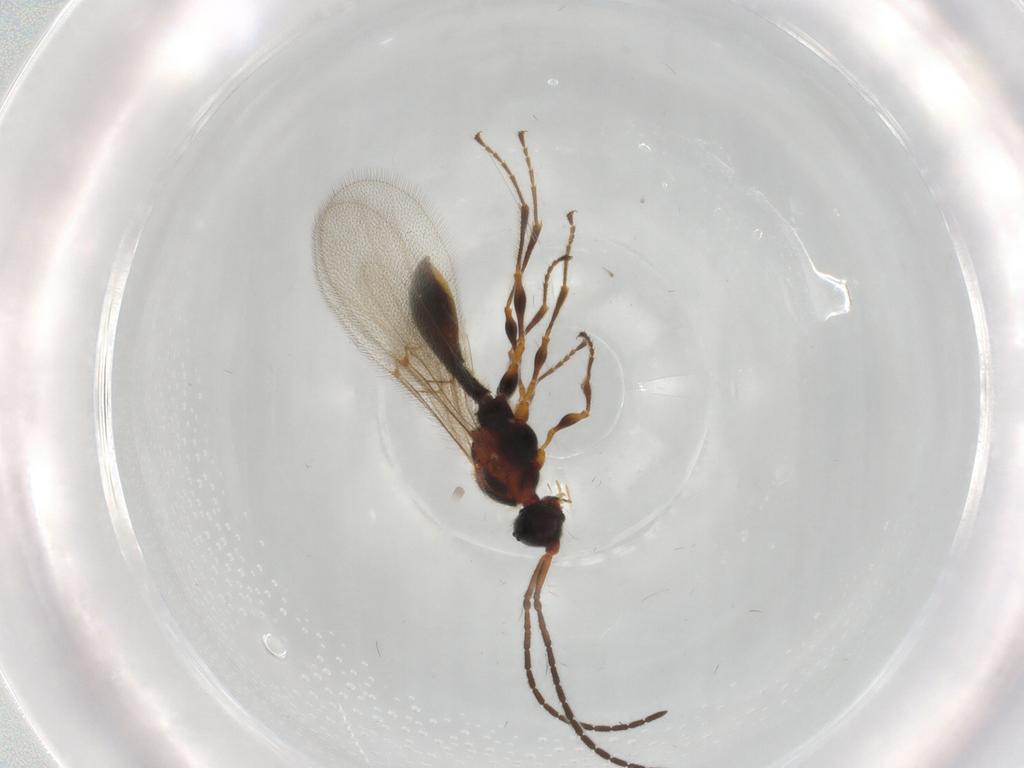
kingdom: Animalia
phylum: Arthropoda
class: Insecta
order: Hymenoptera
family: Diapriidae
